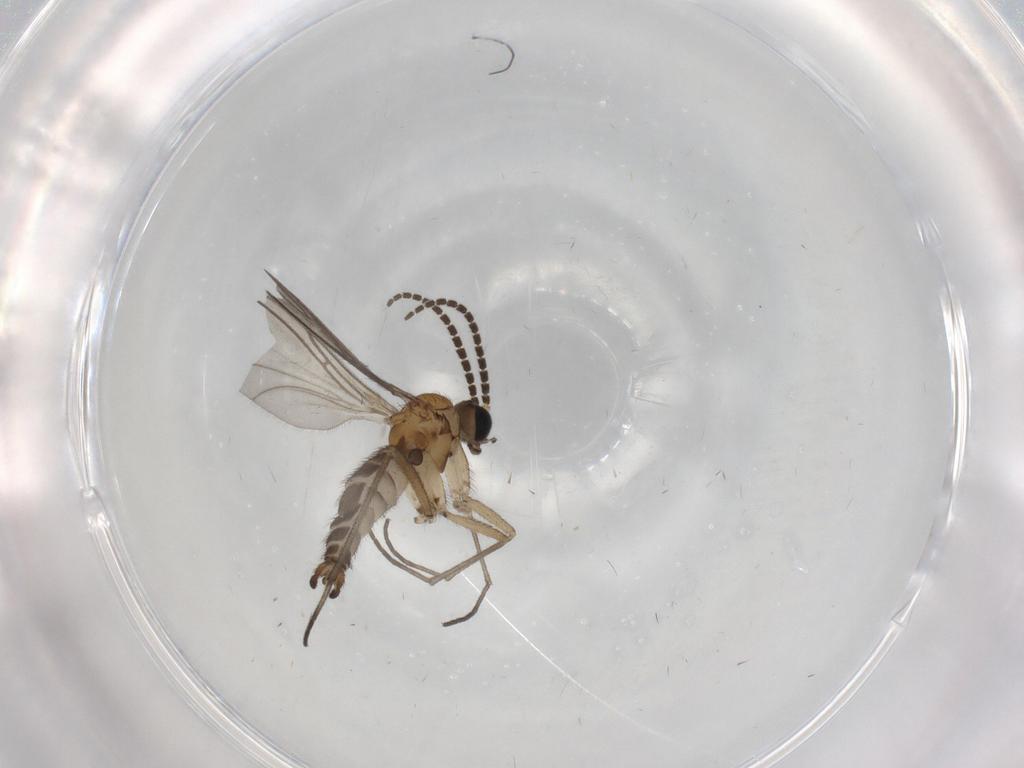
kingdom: Animalia
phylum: Arthropoda
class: Insecta
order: Diptera
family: Sciaridae
